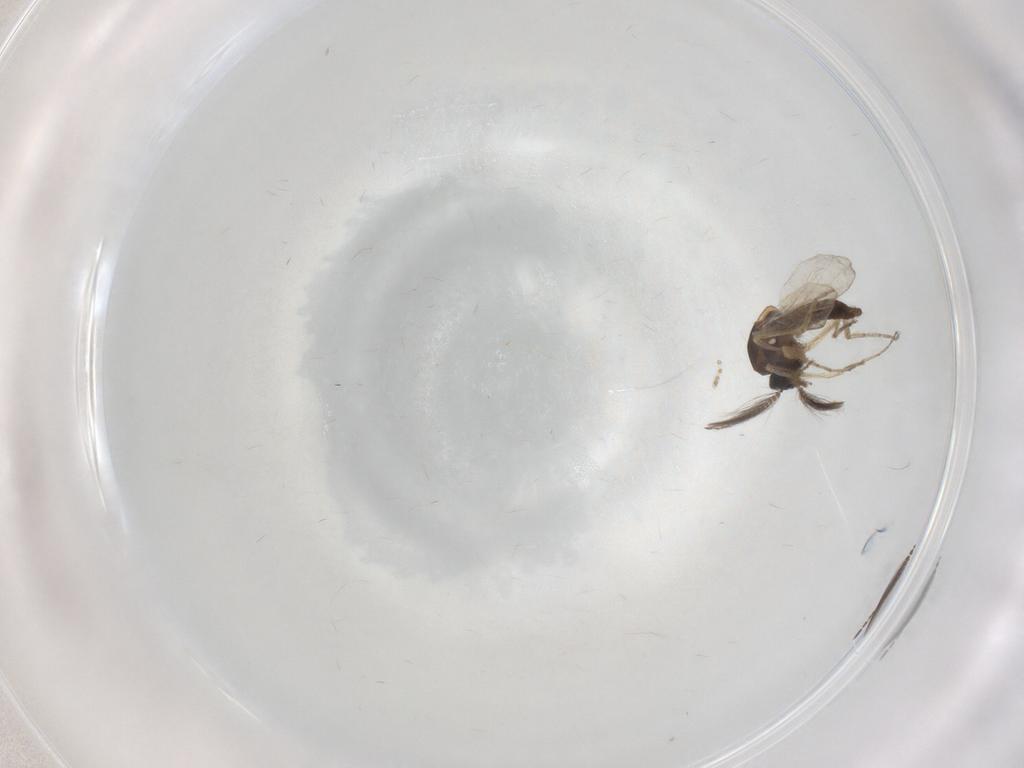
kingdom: Animalia
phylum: Arthropoda
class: Insecta
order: Diptera
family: Ceratopogonidae
